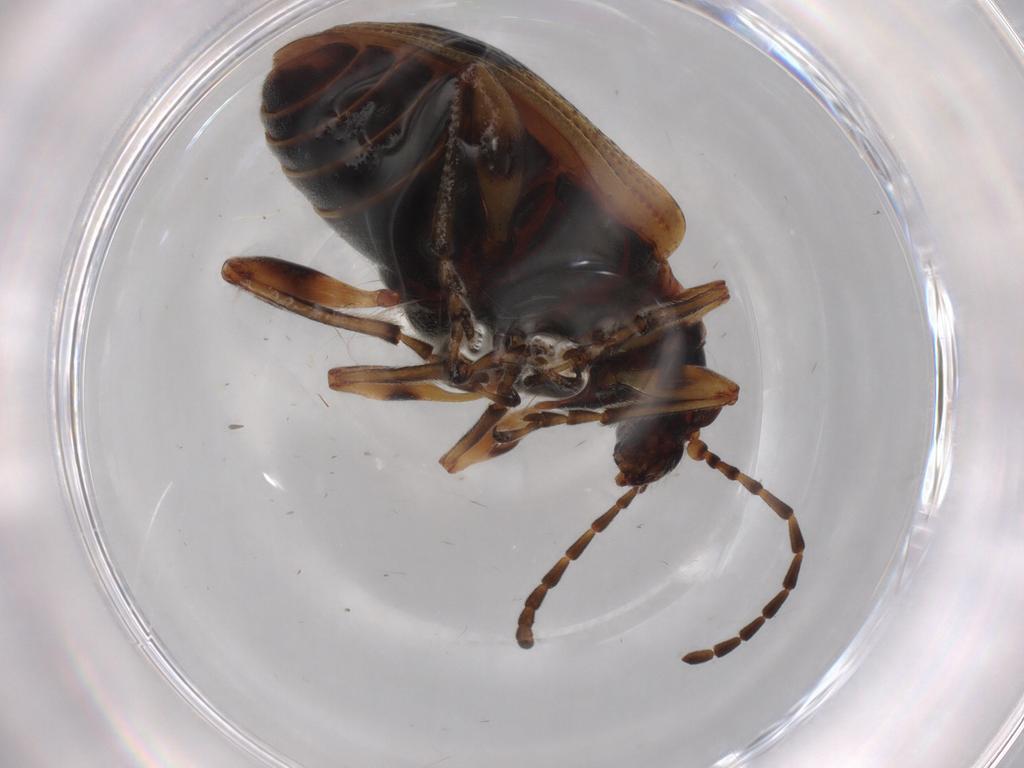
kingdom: Animalia
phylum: Arthropoda
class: Insecta
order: Coleoptera
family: Chrysomelidae
